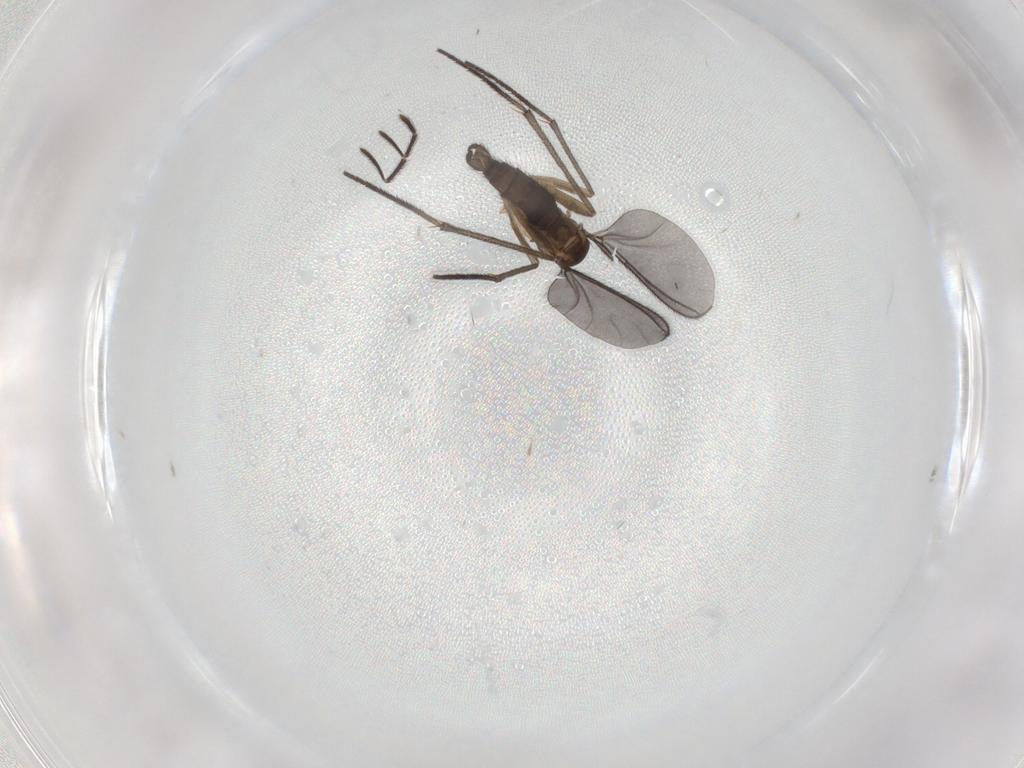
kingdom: Animalia
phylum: Arthropoda
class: Insecta
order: Diptera
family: Sciaridae
